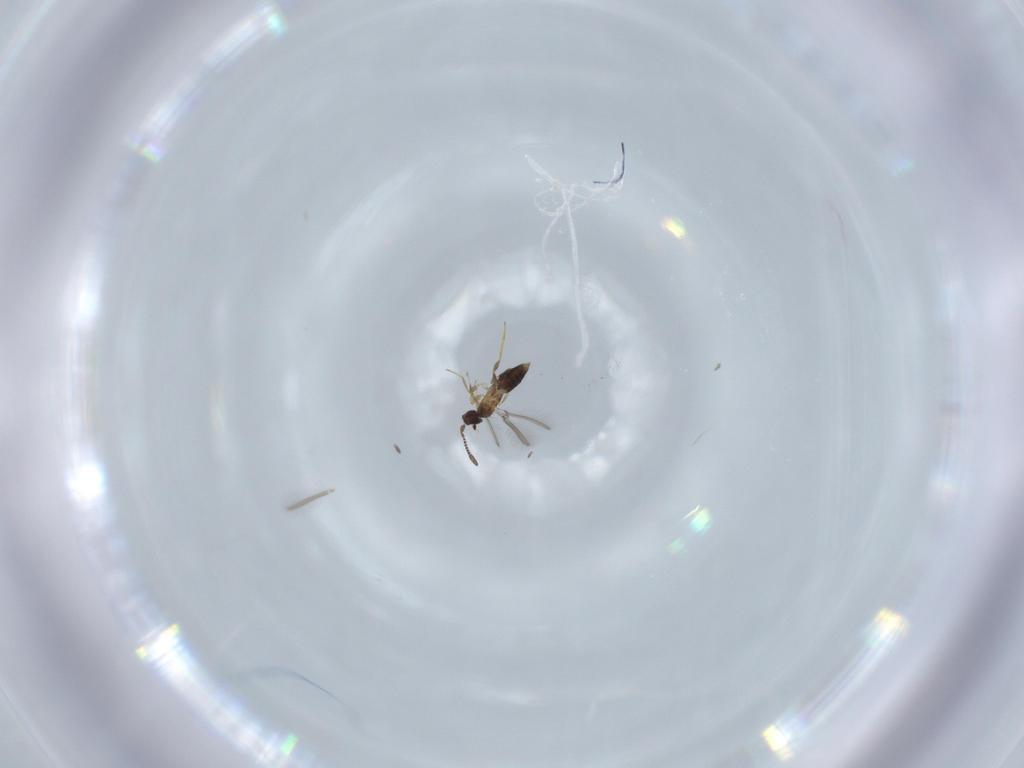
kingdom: Animalia
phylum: Arthropoda
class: Insecta
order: Hymenoptera
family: Mymaridae
